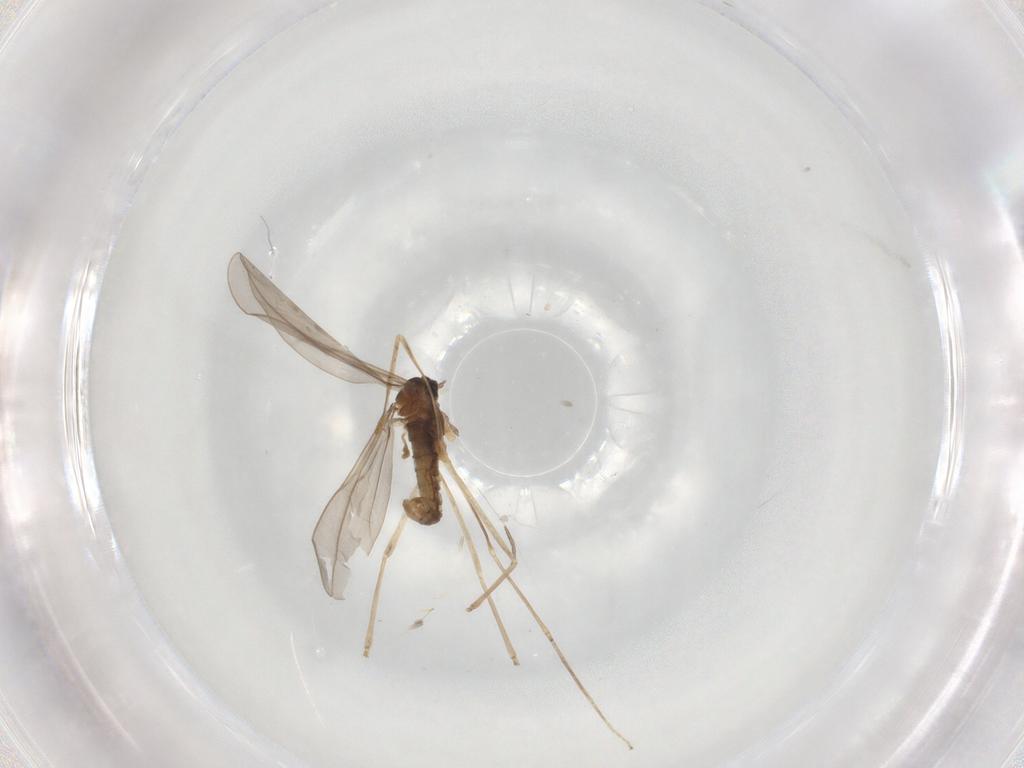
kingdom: Animalia
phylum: Arthropoda
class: Insecta
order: Diptera
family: Cecidomyiidae
